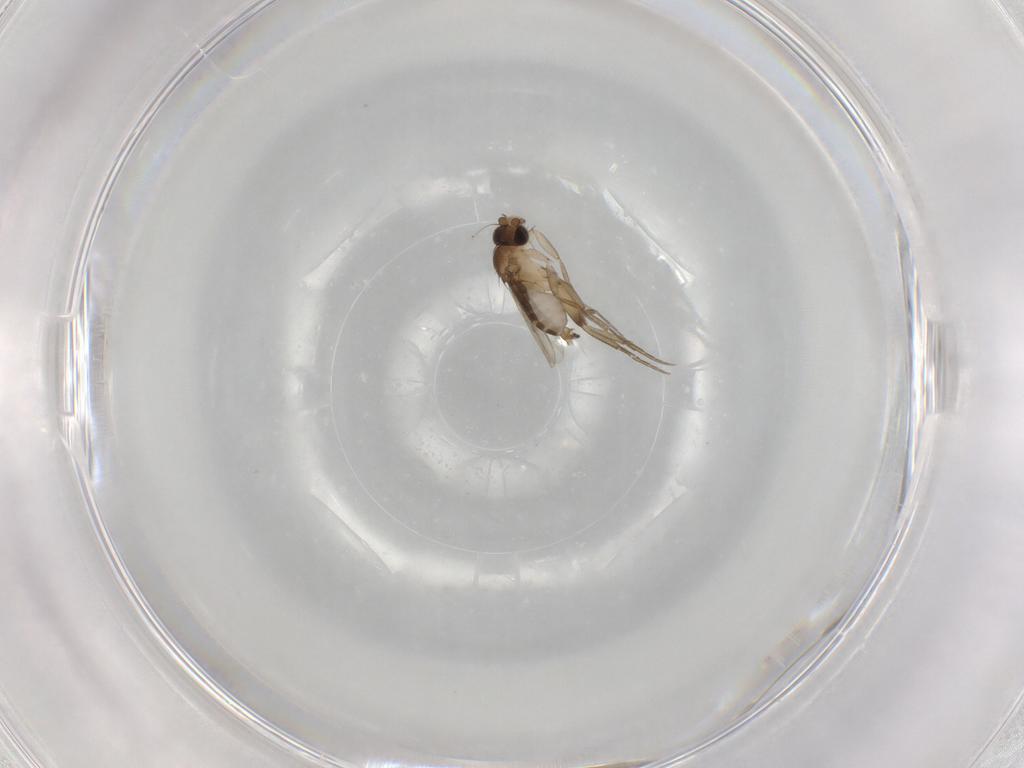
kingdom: Animalia
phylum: Arthropoda
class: Insecta
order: Diptera
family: Phoridae
